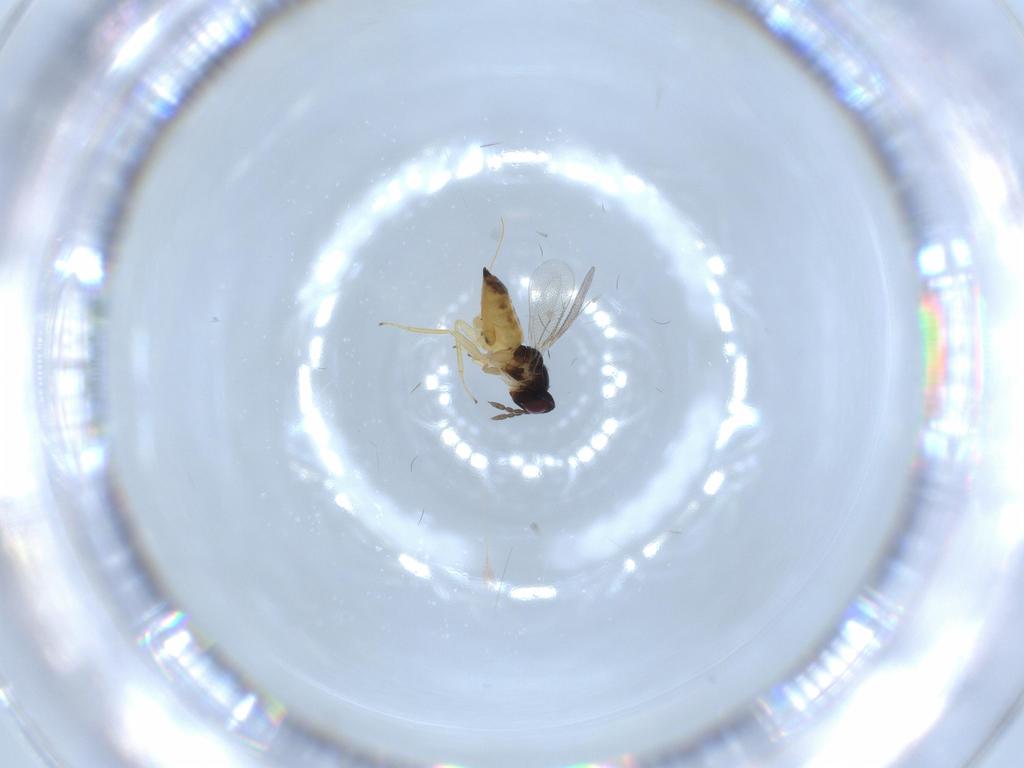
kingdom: Animalia
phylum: Arthropoda
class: Insecta
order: Hymenoptera
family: Eulophidae
